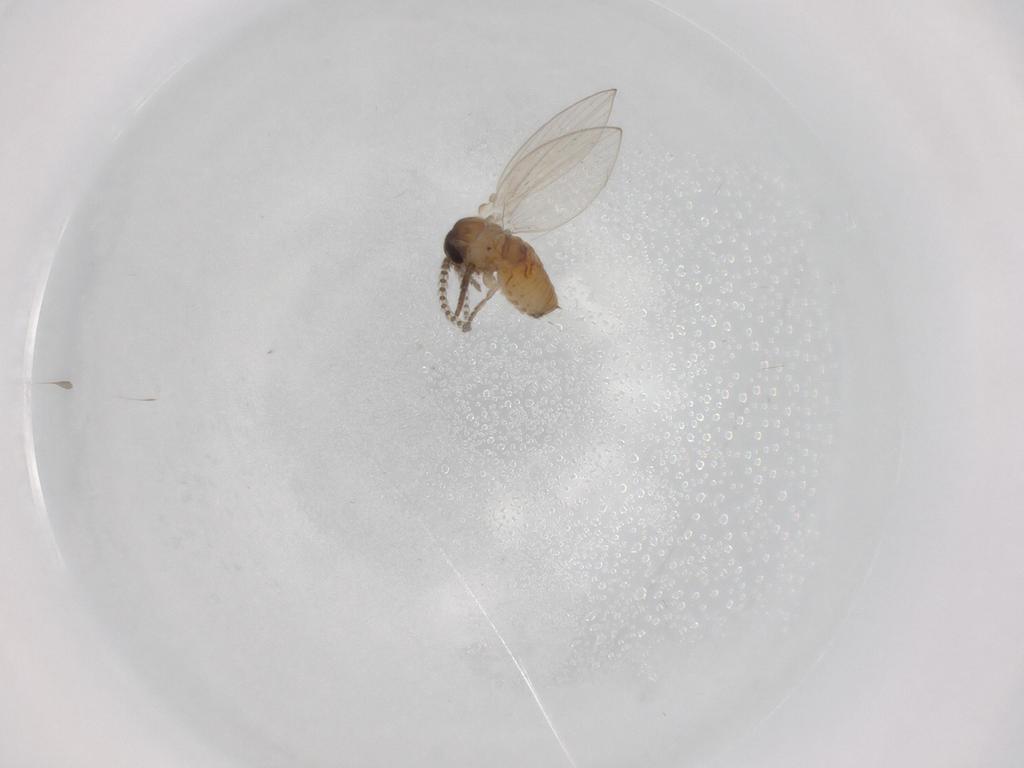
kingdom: Animalia
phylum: Arthropoda
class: Insecta
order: Diptera
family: Psychodidae
